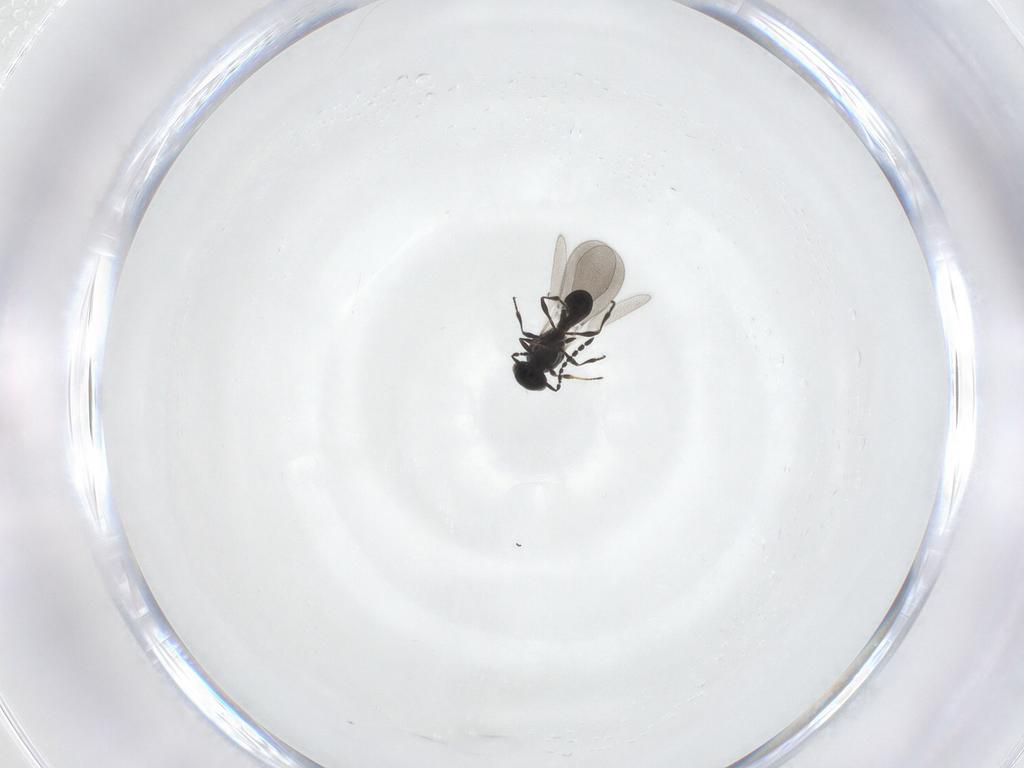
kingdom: Animalia
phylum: Arthropoda
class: Insecta
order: Hymenoptera
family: Platygastridae
